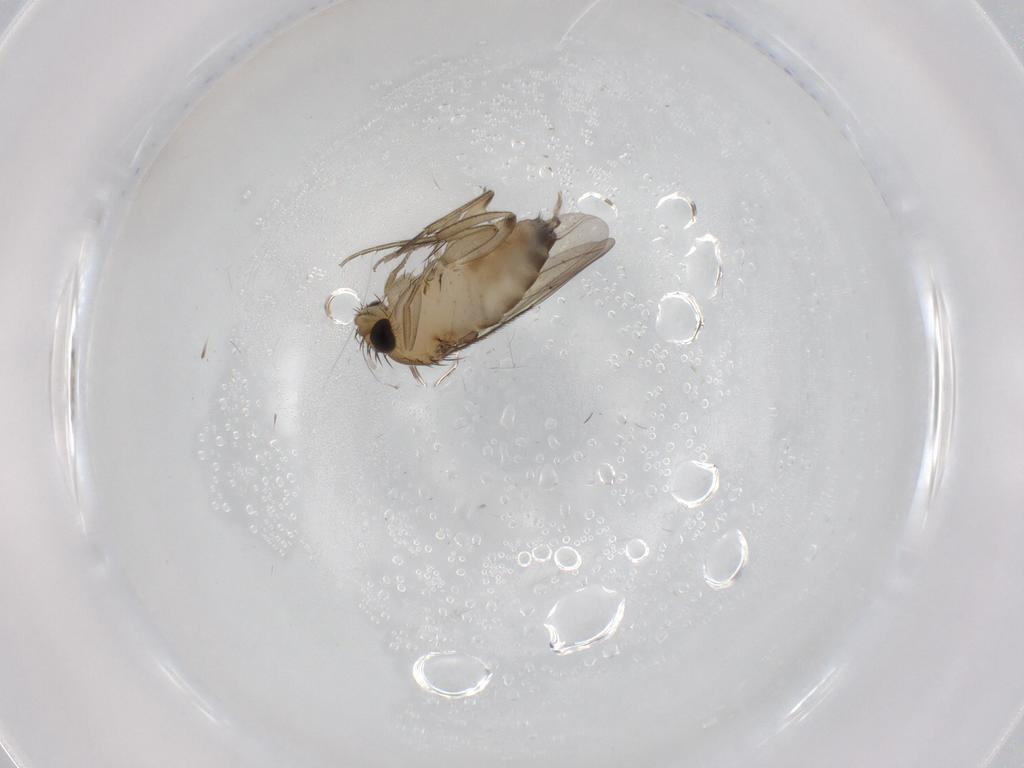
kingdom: Animalia
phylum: Arthropoda
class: Insecta
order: Diptera
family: Phoridae
